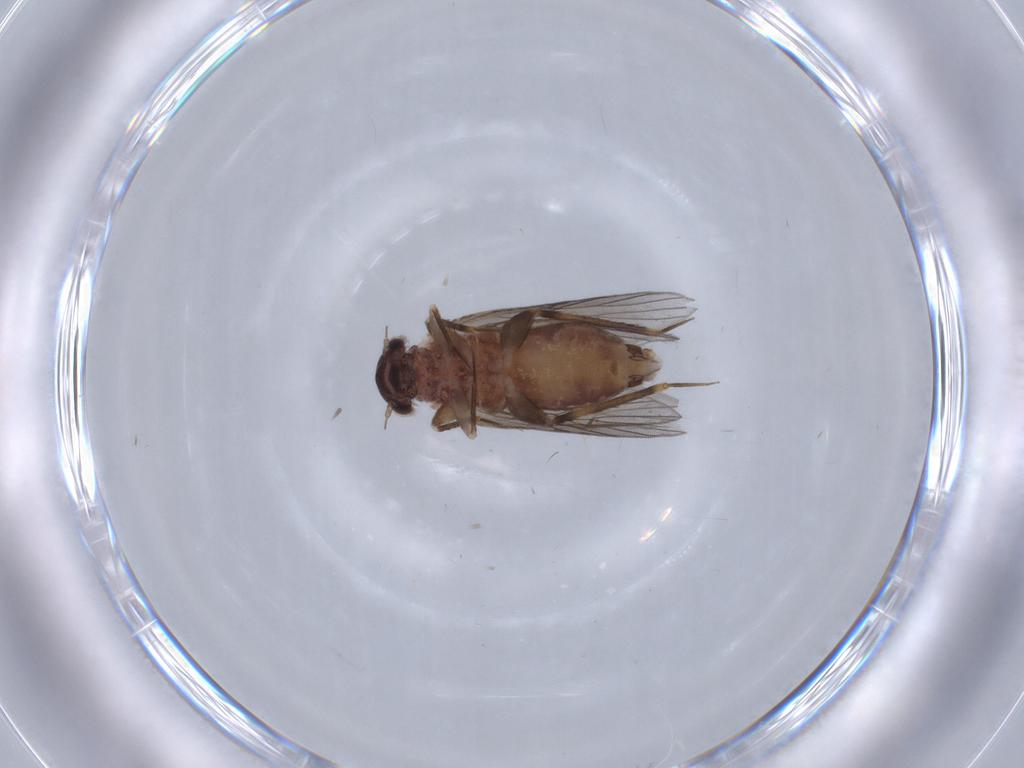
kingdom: Animalia
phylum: Arthropoda
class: Insecta
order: Psocodea
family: Lepidopsocidae
